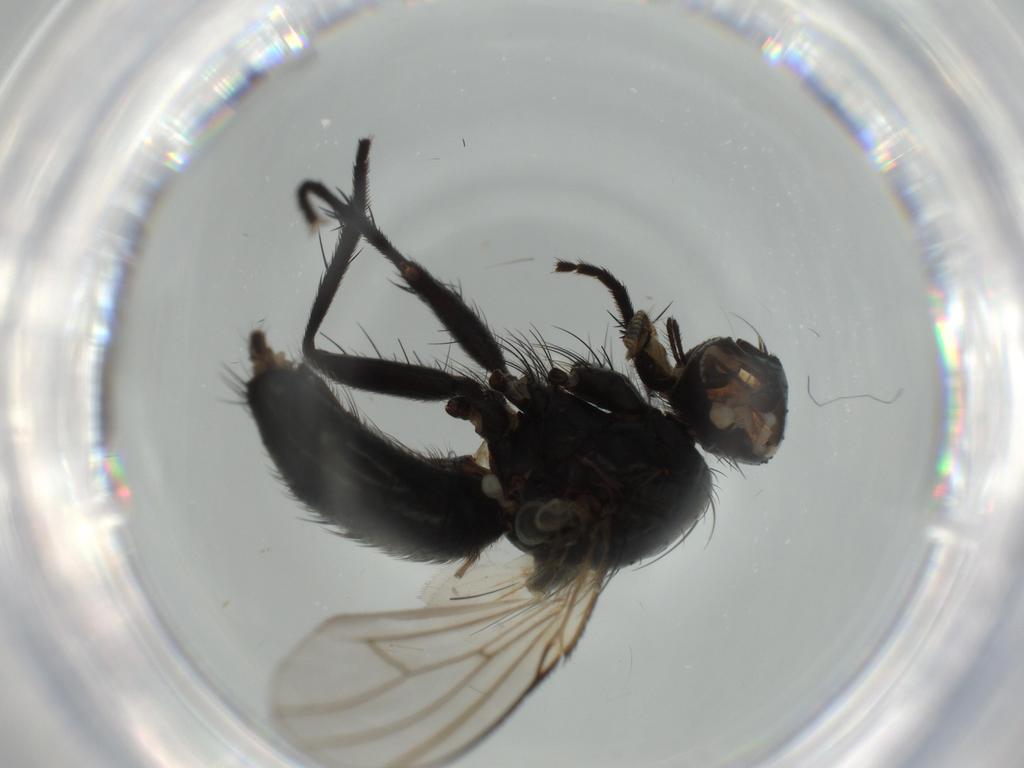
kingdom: Animalia
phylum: Arthropoda
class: Insecta
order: Diptera
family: Muscidae
